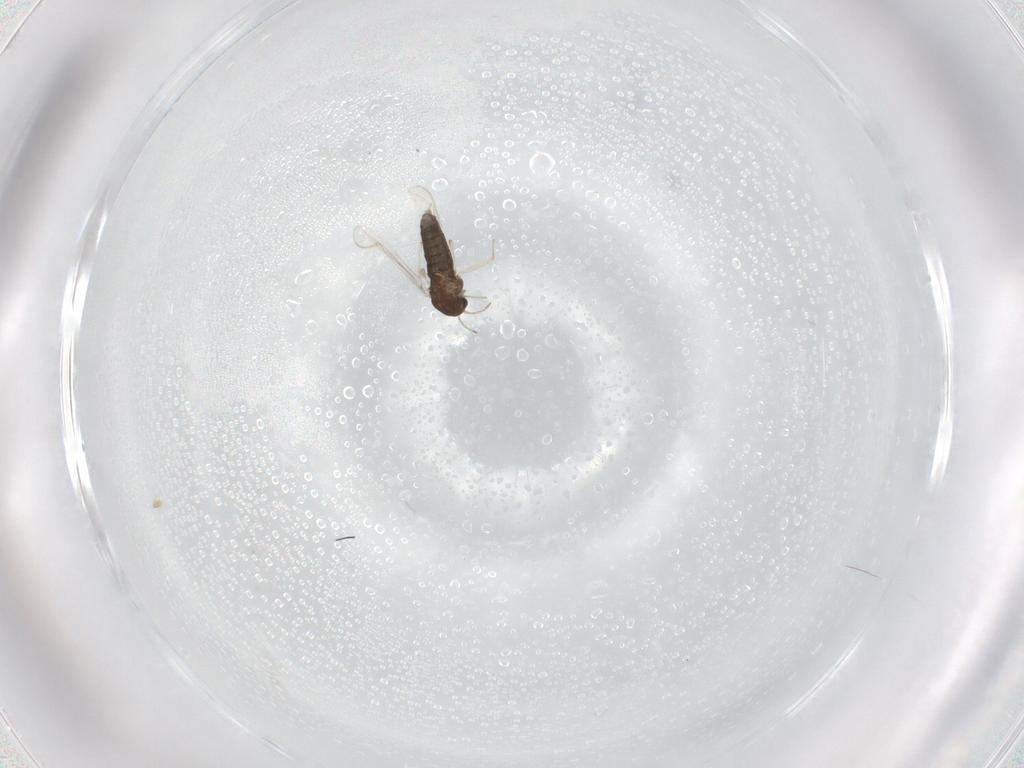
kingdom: Animalia
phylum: Arthropoda
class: Insecta
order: Diptera
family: Chironomidae
